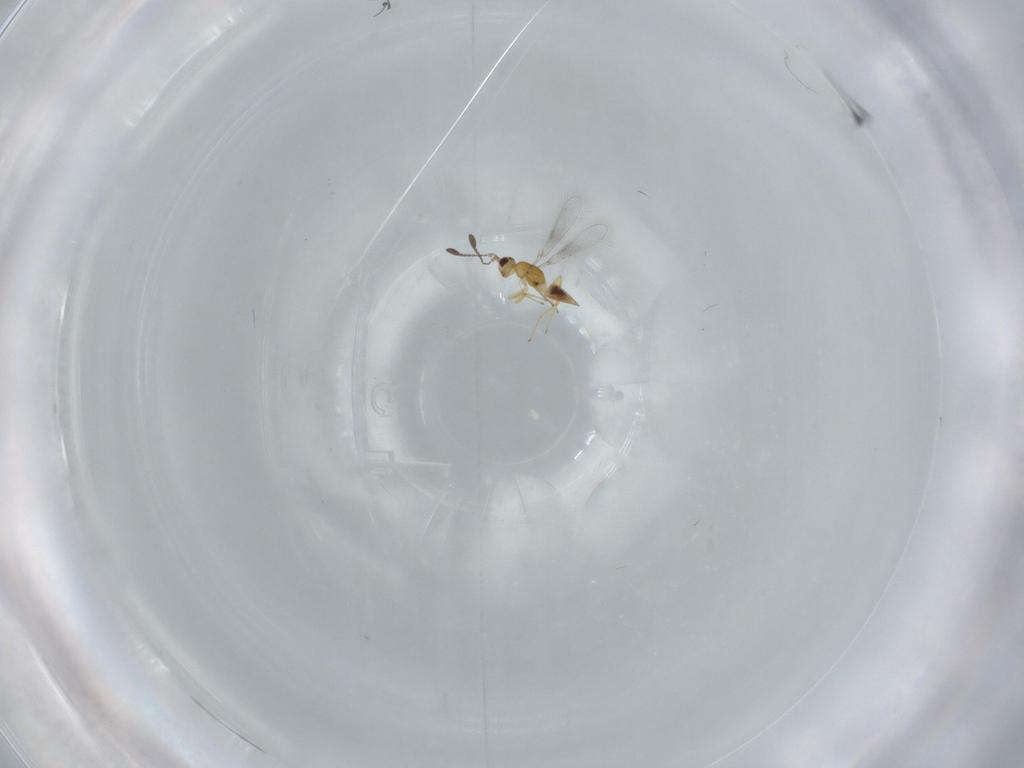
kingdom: Animalia
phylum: Arthropoda
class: Insecta
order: Hymenoptera
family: Mymaridae
